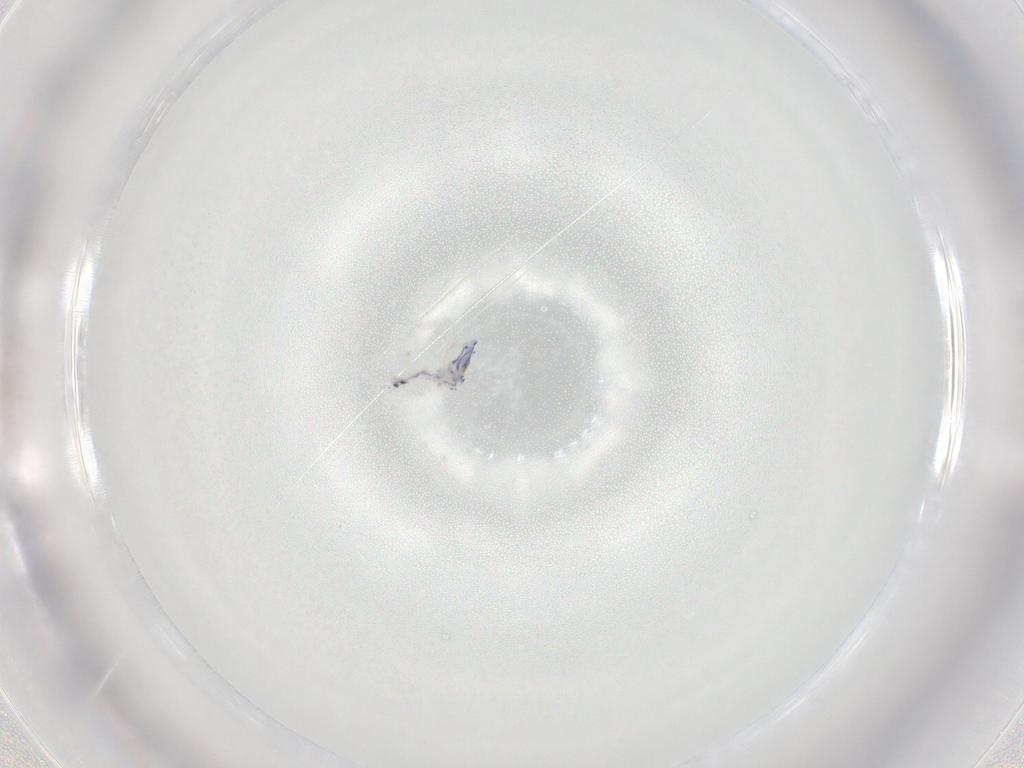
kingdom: Animalia
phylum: Arthropoda
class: Collembola
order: Entomobryomorpha
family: Entomobryidae
